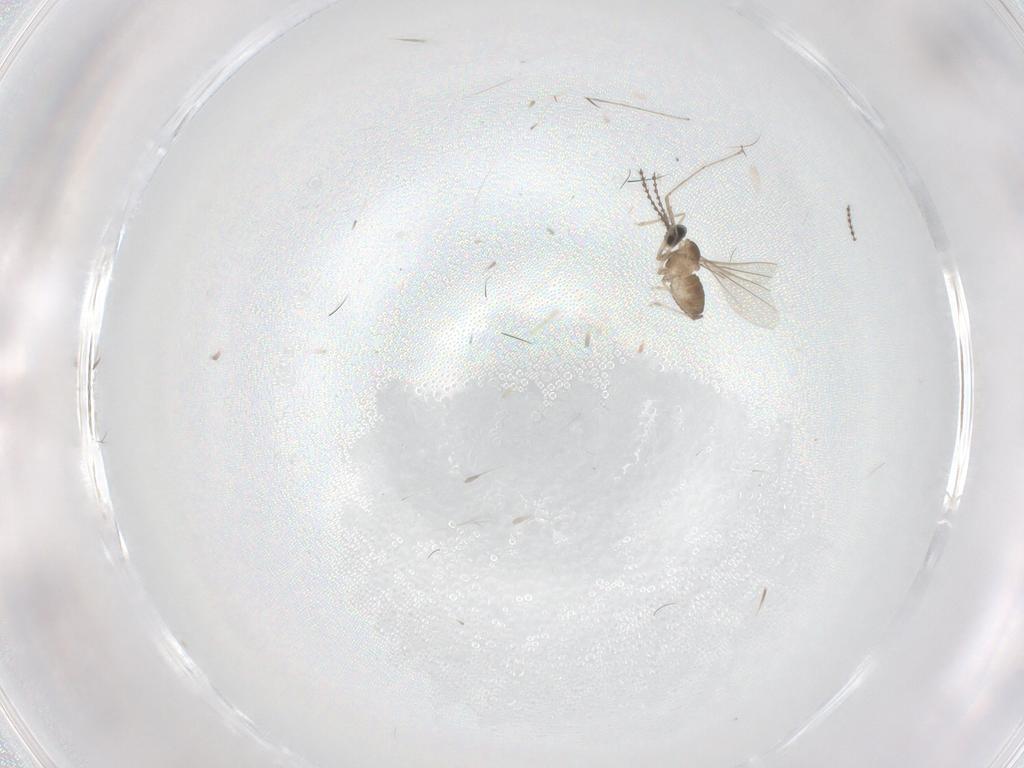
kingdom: Animalia
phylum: Arthropoda
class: Insecta
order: Diptera
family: Cecidomyiidae
